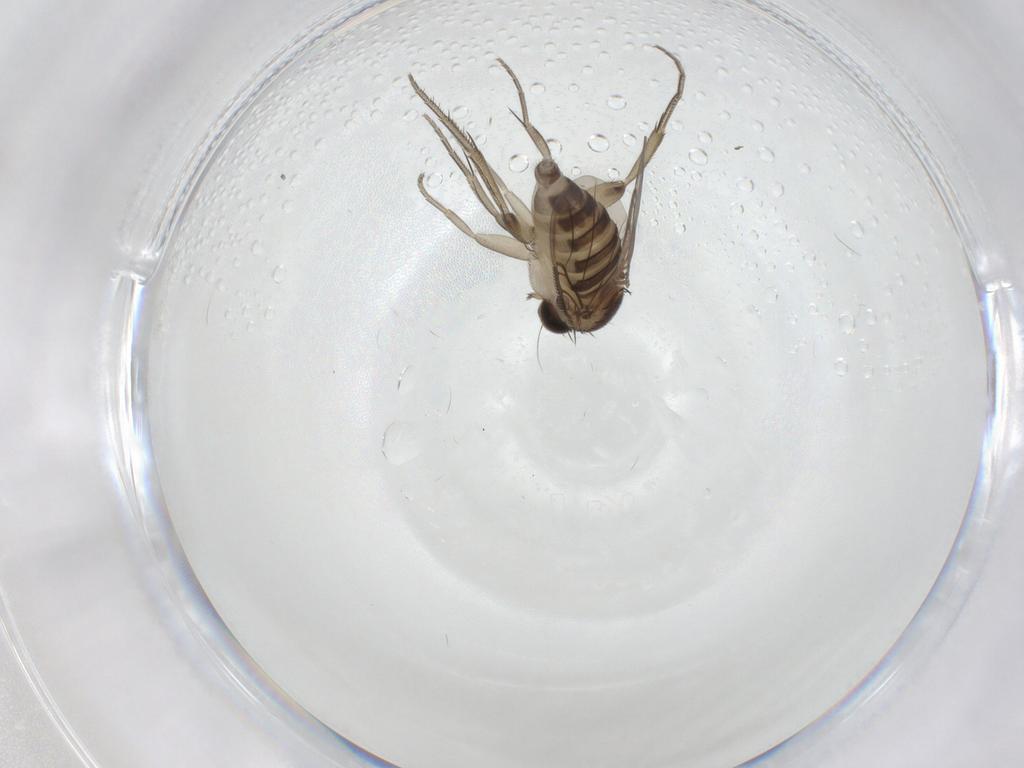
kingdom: Animalia
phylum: Arthropoda
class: Insecta
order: Diptera
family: Phoridae
